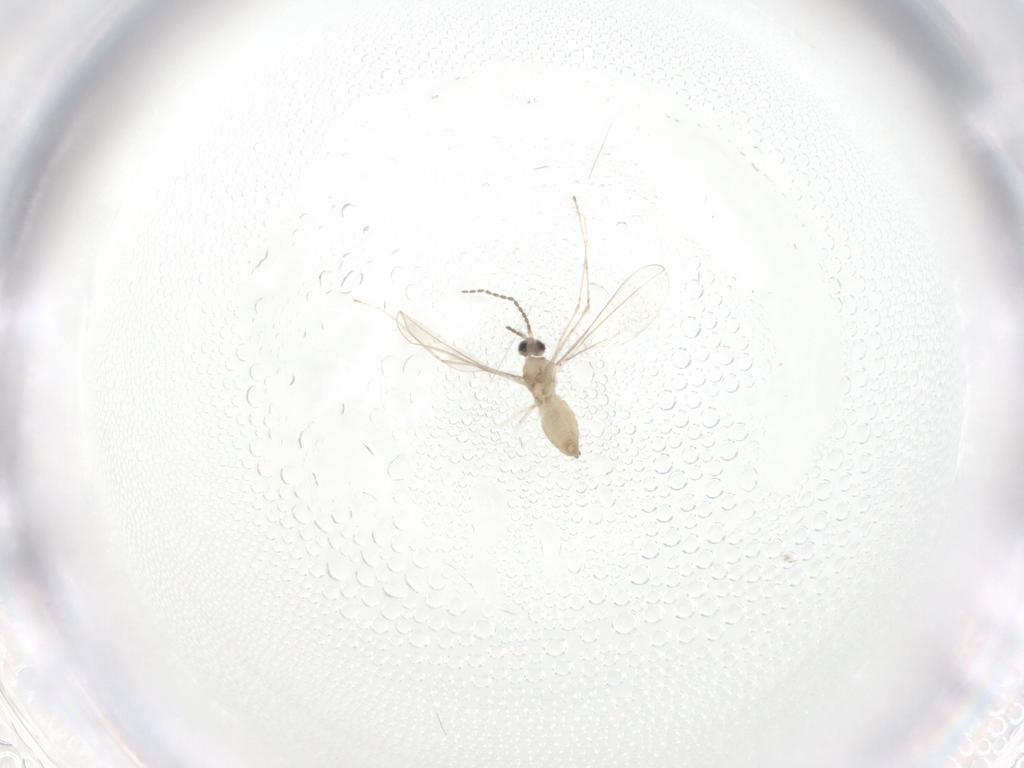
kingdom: Animalia
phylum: Arthropoda
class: Insecta
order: Diptera
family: Cecidomyiidae
